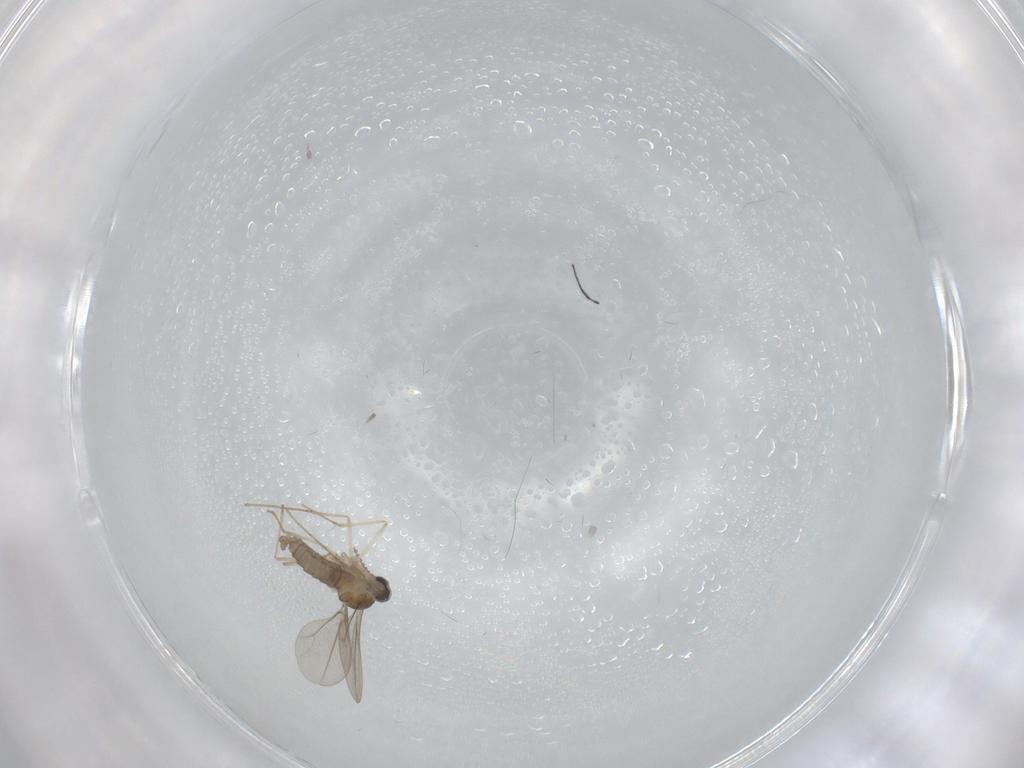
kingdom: Animalia
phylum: Arthropoda
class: Insecta
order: Diptera
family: Cecidomyiidae
